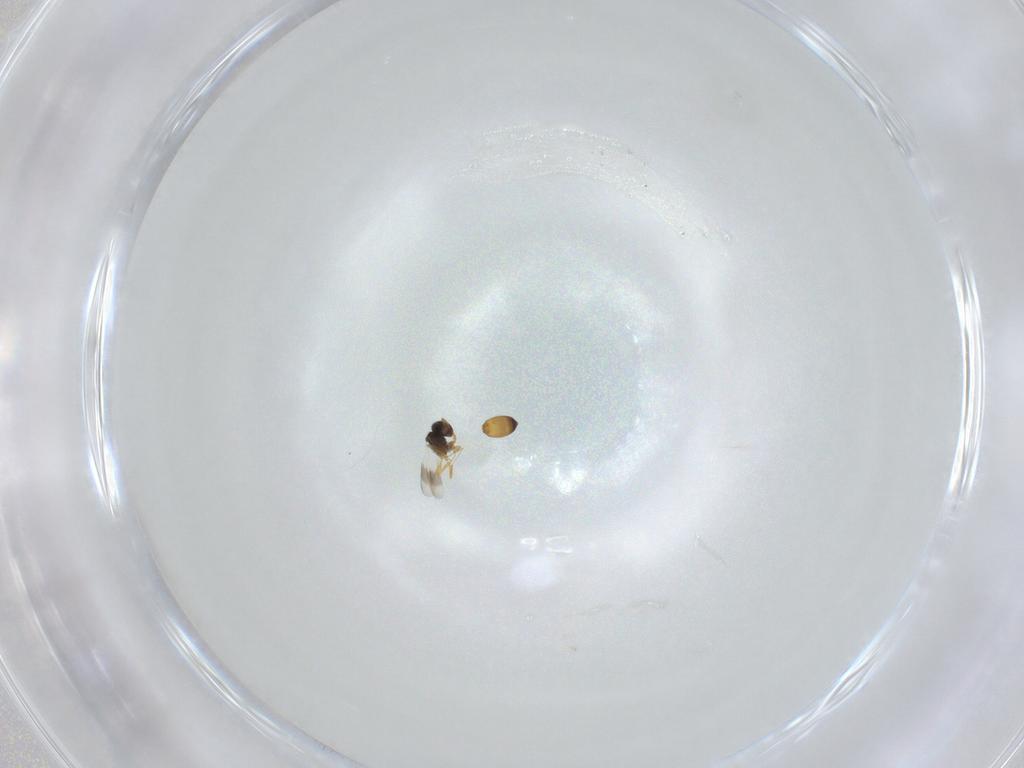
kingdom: Animalia
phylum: Arthropoda
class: Insecta
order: Hymenoptera
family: Platygastridae
